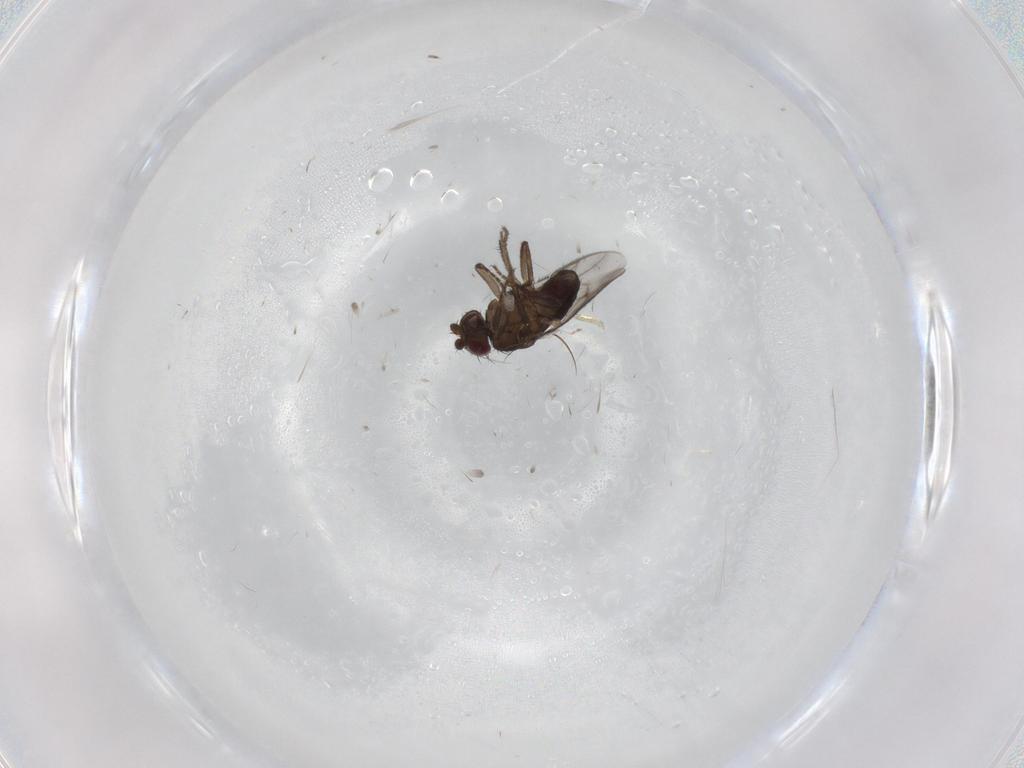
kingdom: Animalia
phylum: Arthropoda
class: Insecta
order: Diptera
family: Sphaeroceridae
